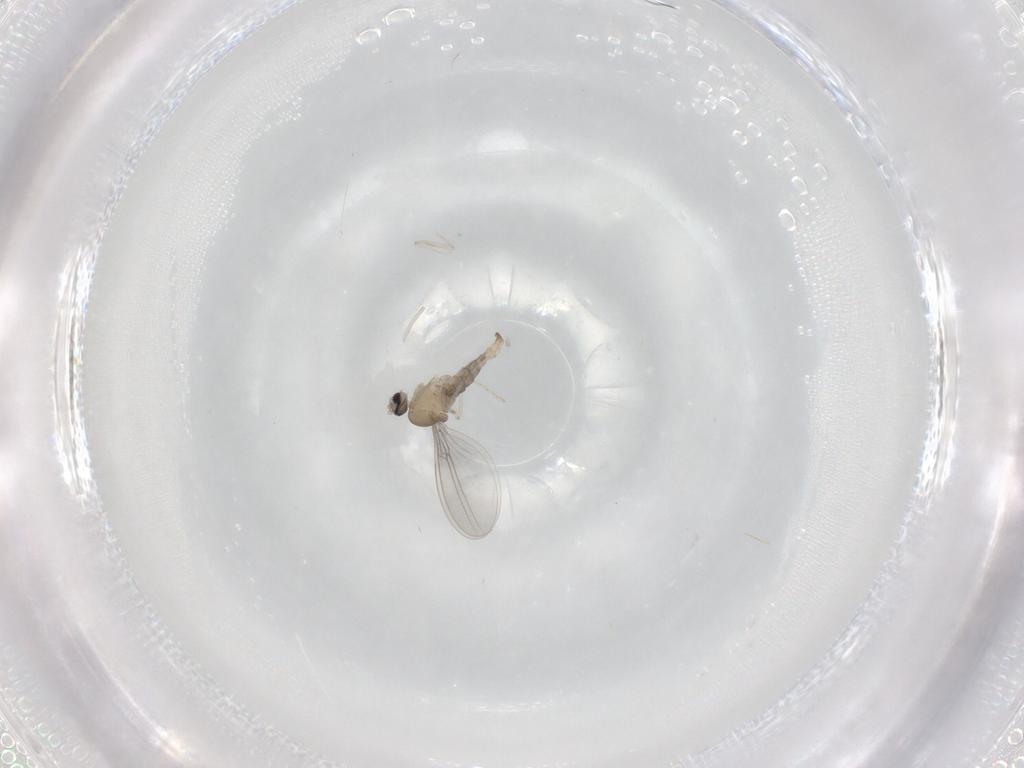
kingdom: Animalia
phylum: Arthropoda
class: Insecta
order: Diptera
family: Cecidomyiidae
